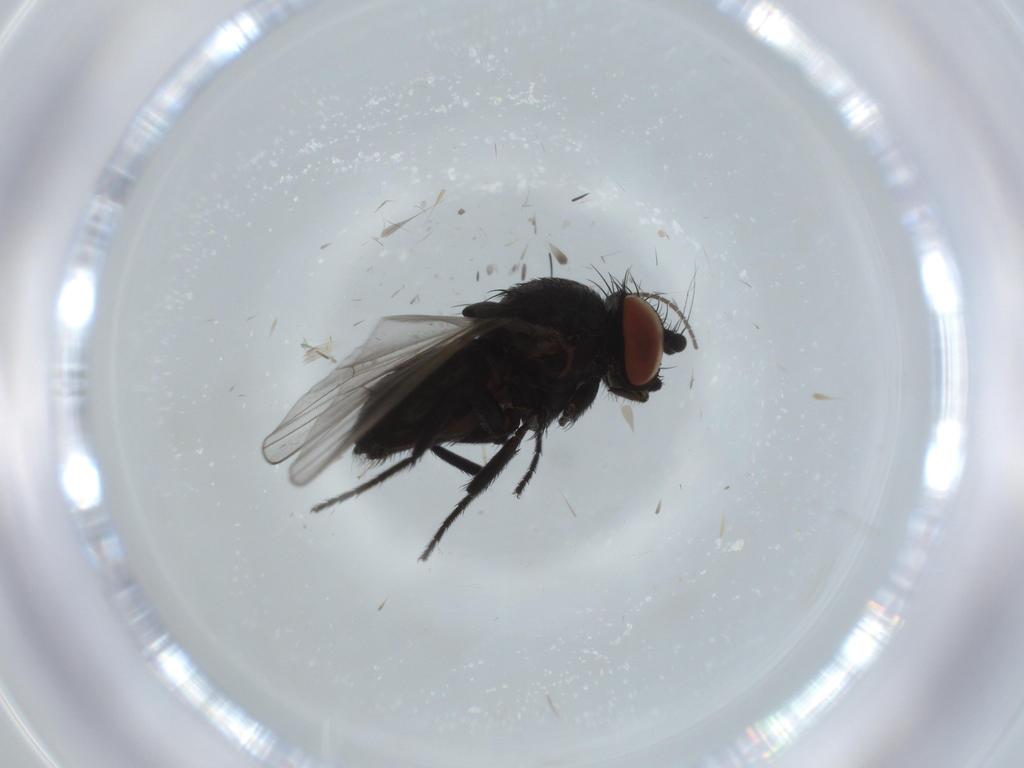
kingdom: Animalia
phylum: Arthropoda
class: Insecta
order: Diptera
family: Milichiidae
